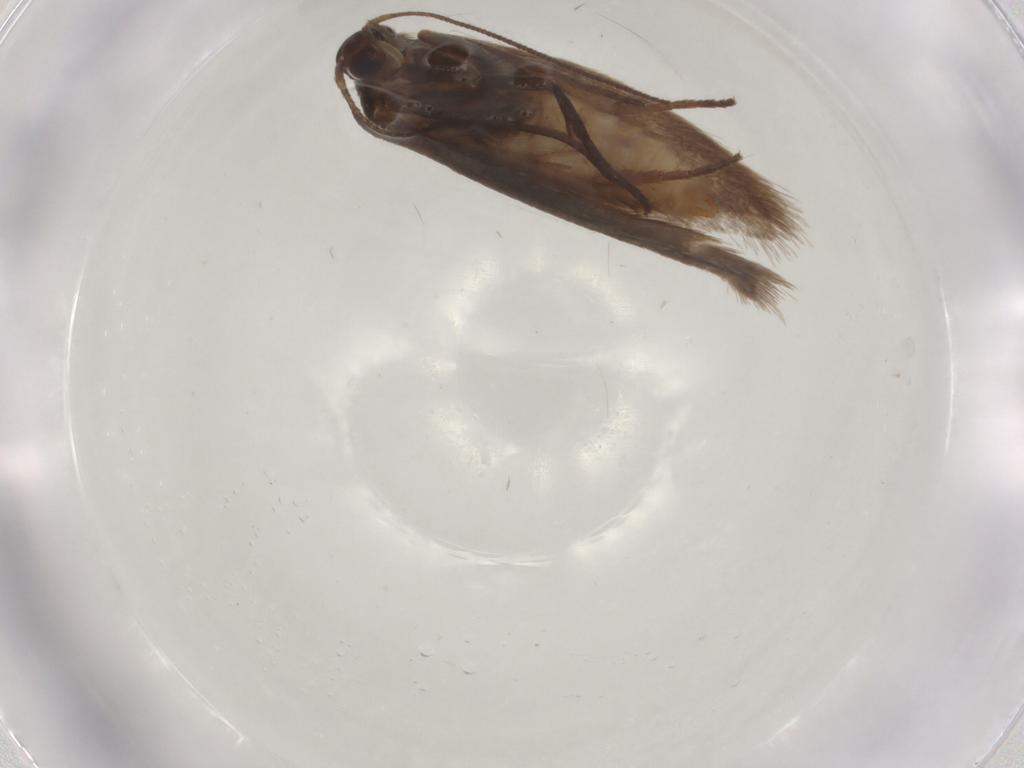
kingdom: Animalia
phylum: Arthropoda
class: Insecta
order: Lepidoptera
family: Limacodidae
